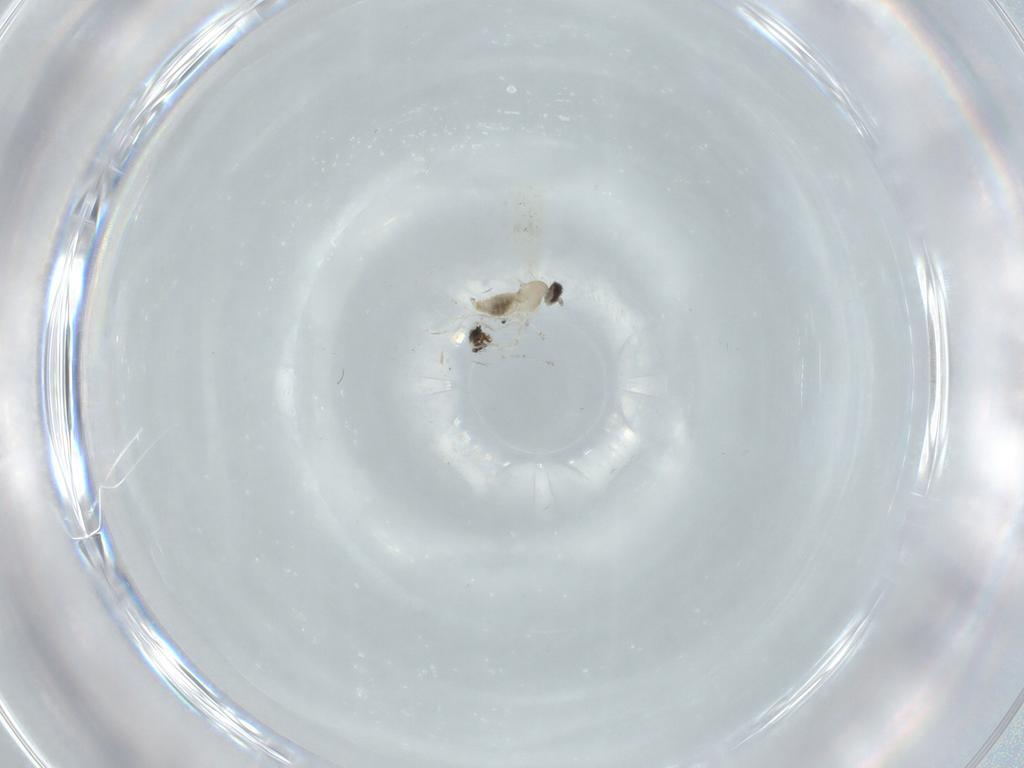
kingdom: Animalia
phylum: Arthropoda
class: Insecta
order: Diptera
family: Cecidomyiidae
